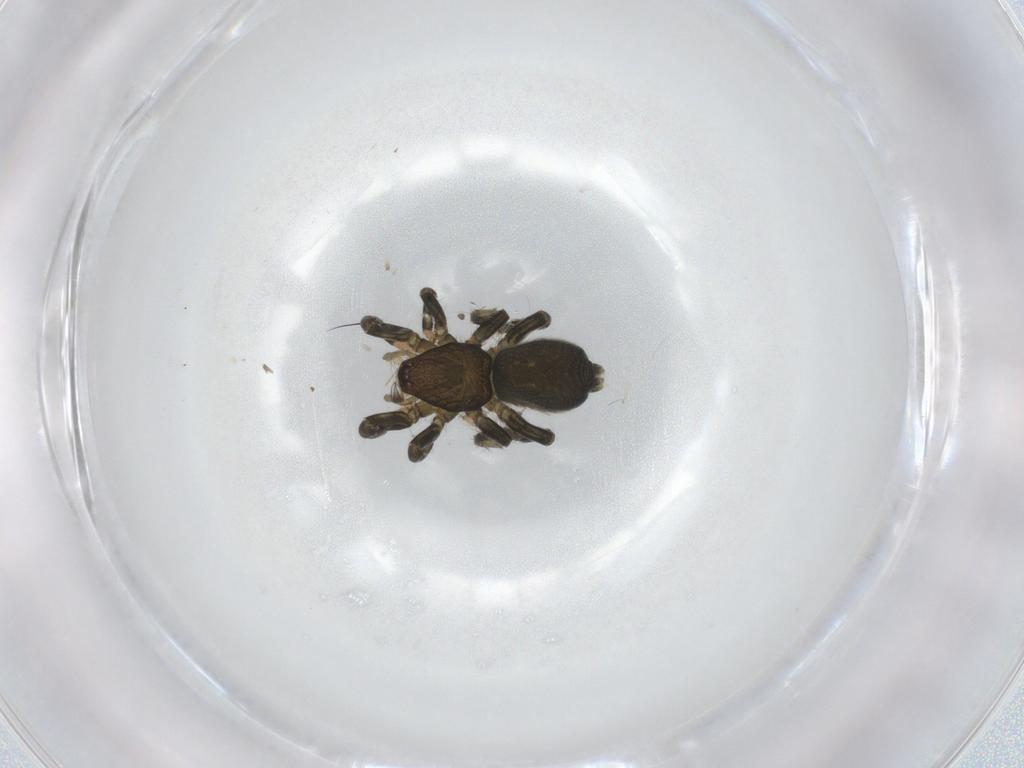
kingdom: Animalia
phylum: Arthropoda
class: Arachnida
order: Araneae
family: Gnaphosidae
